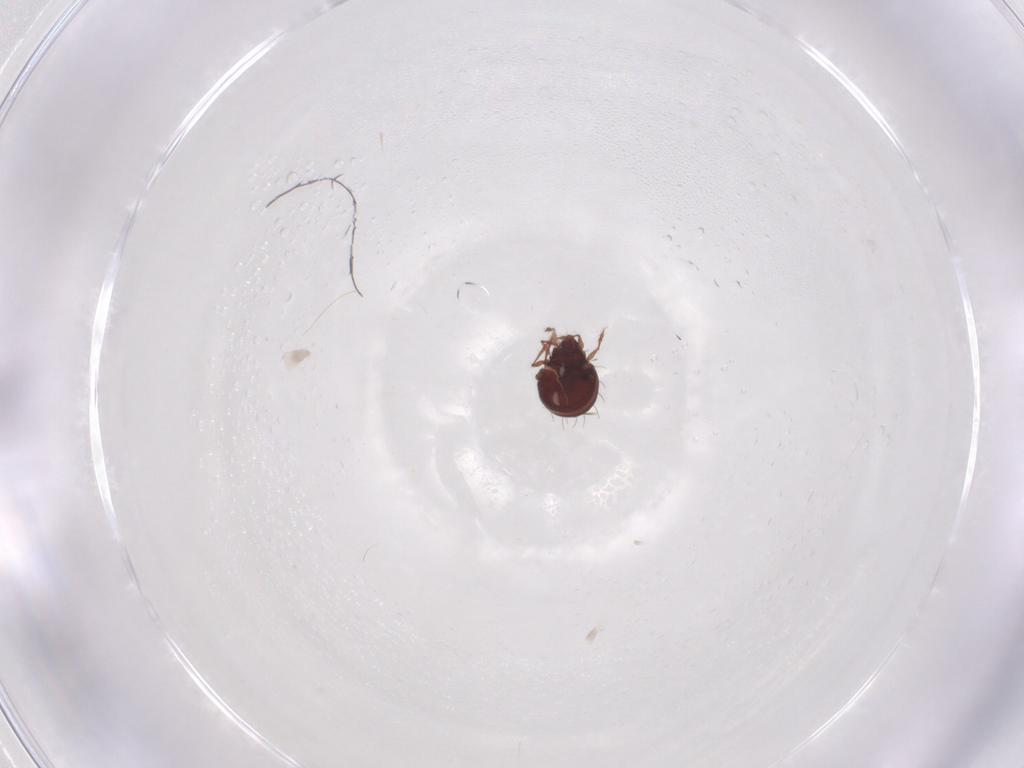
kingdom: Animalia
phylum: Arthropoda
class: Arachnida
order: Sarcoptiformes
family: Caloppiidae
